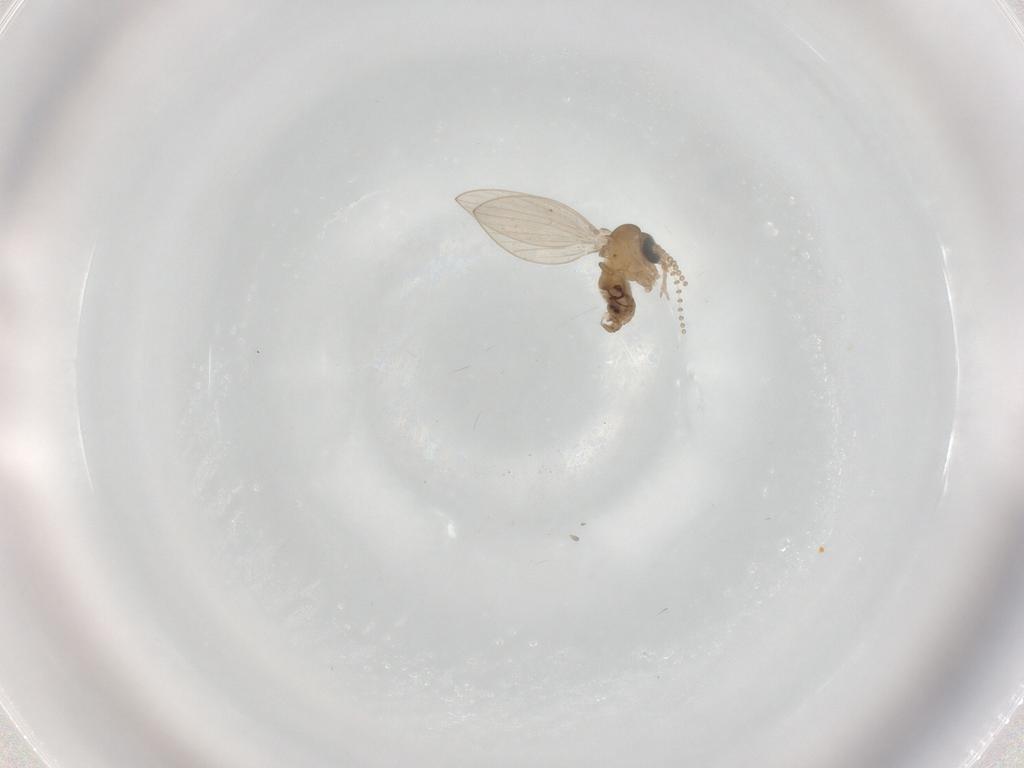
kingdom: Animalia
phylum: Arthropoda
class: Insecta
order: Diptera
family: Psychodidae
